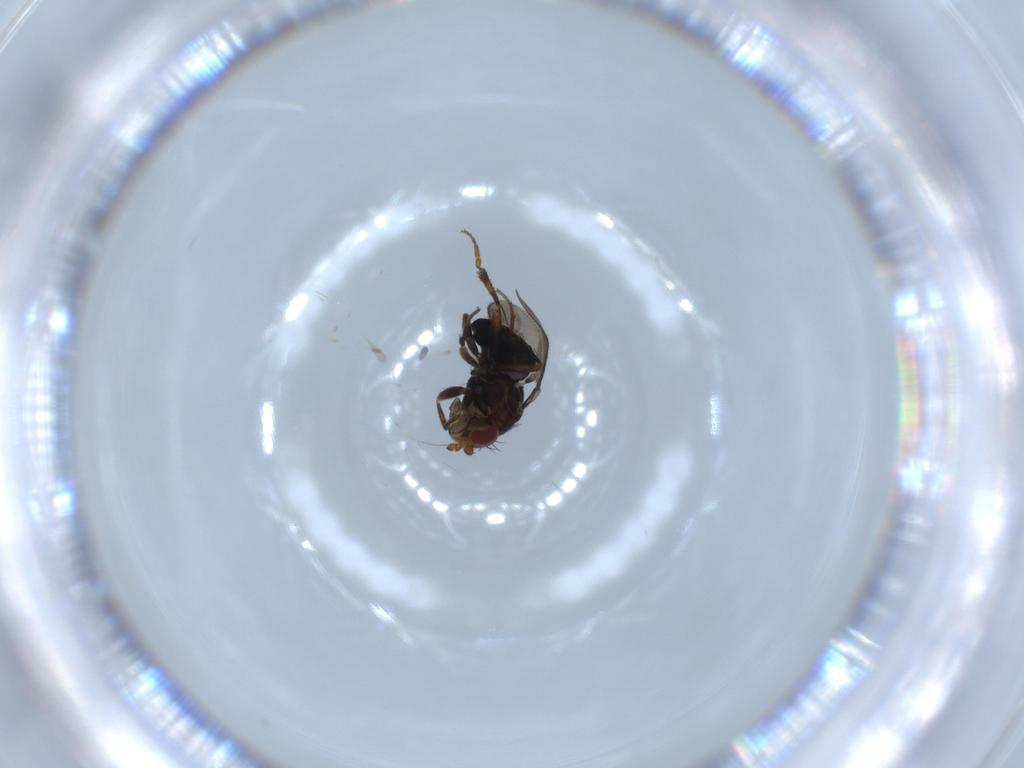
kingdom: Animalia
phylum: Arthropoda
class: Insecta
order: Diptera
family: Sphaeroceridae
